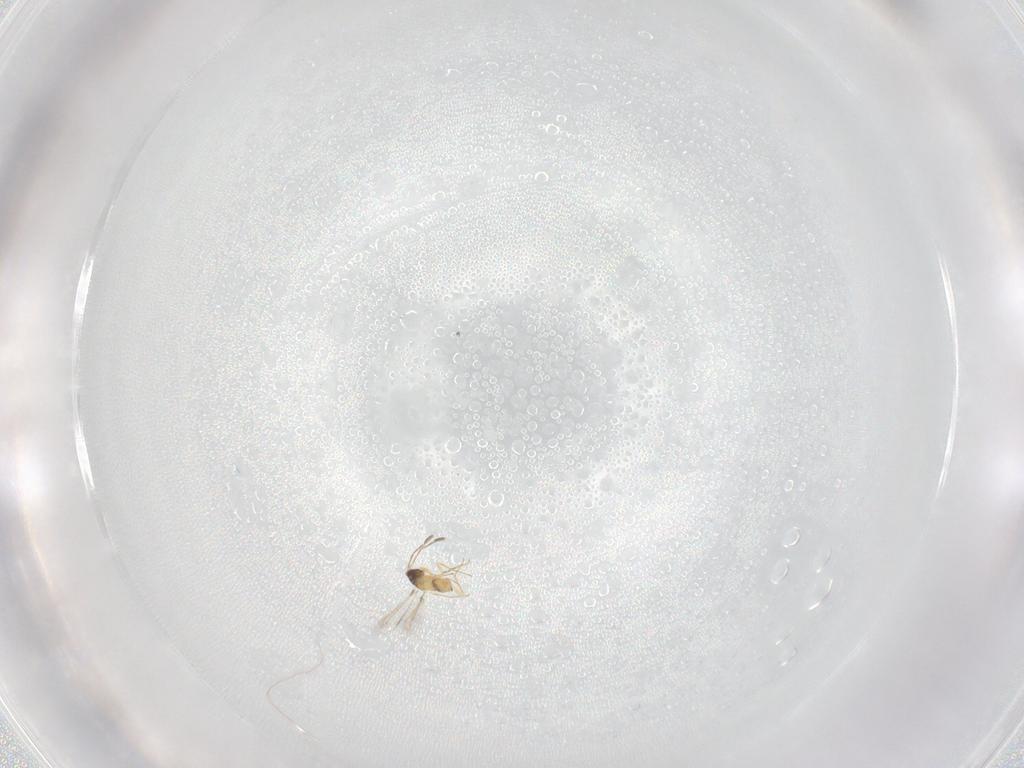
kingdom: Animalia
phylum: Arthropoda
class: Insecta
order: Hymenoptera
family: Mymaridae
